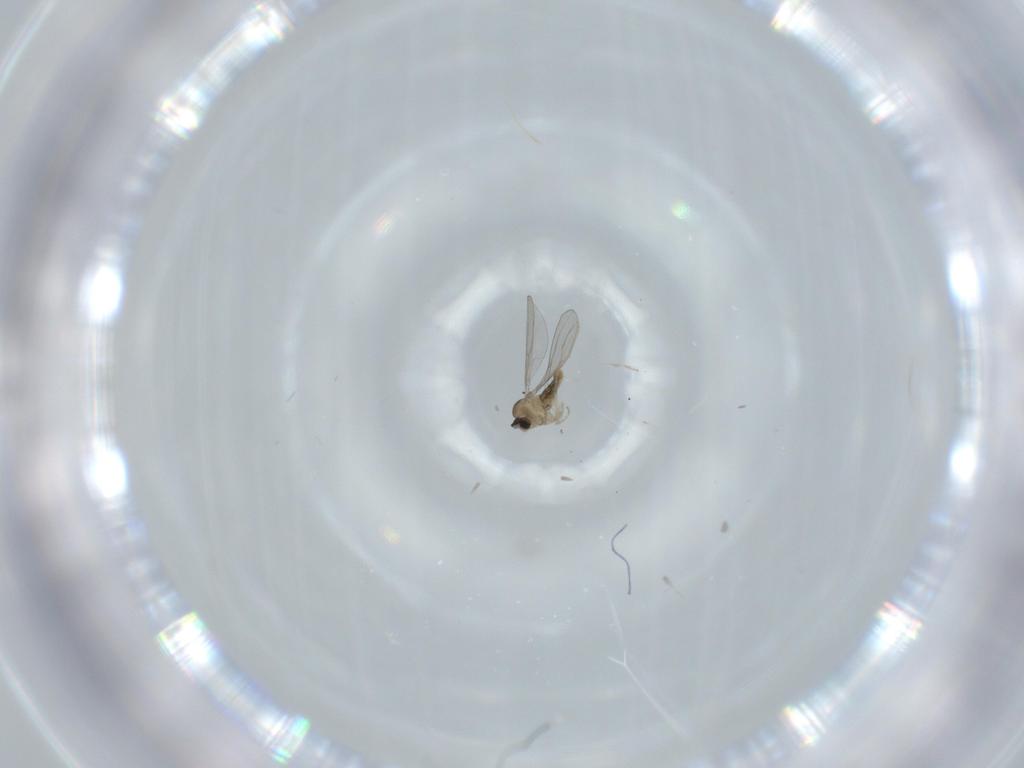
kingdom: Animalia
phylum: Arthropoda
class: Insecta
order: Diptera
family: Cecidomyiidae
